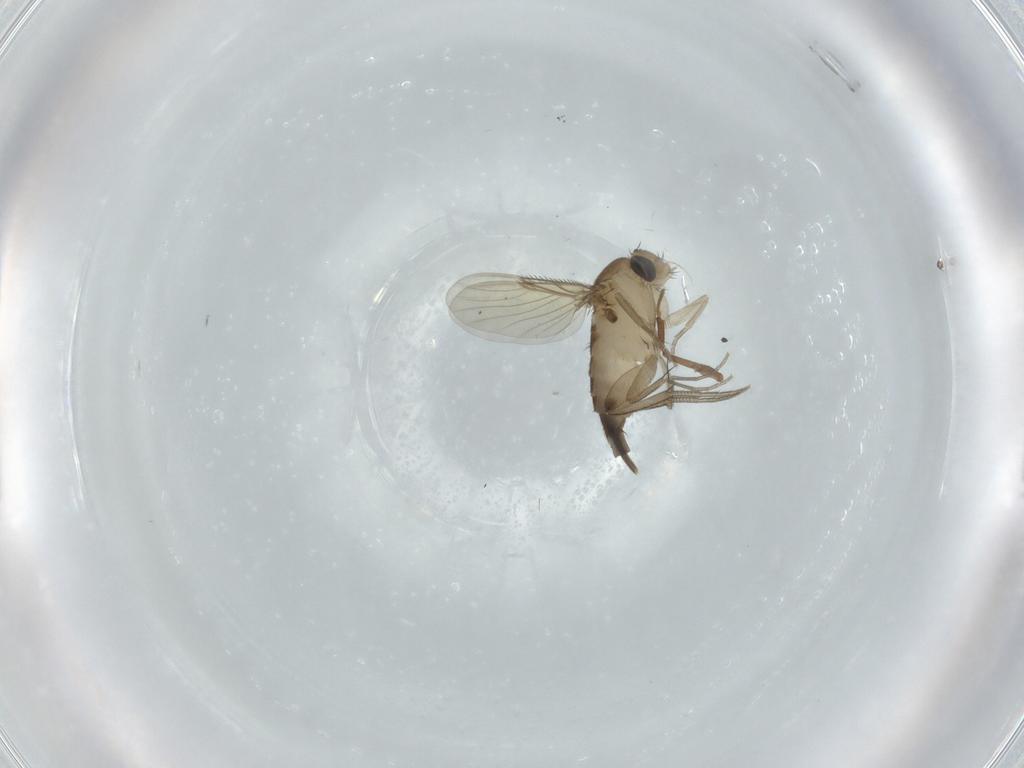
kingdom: Animalia
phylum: Arthropoda
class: Insecta
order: Diptera
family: Phoridae
